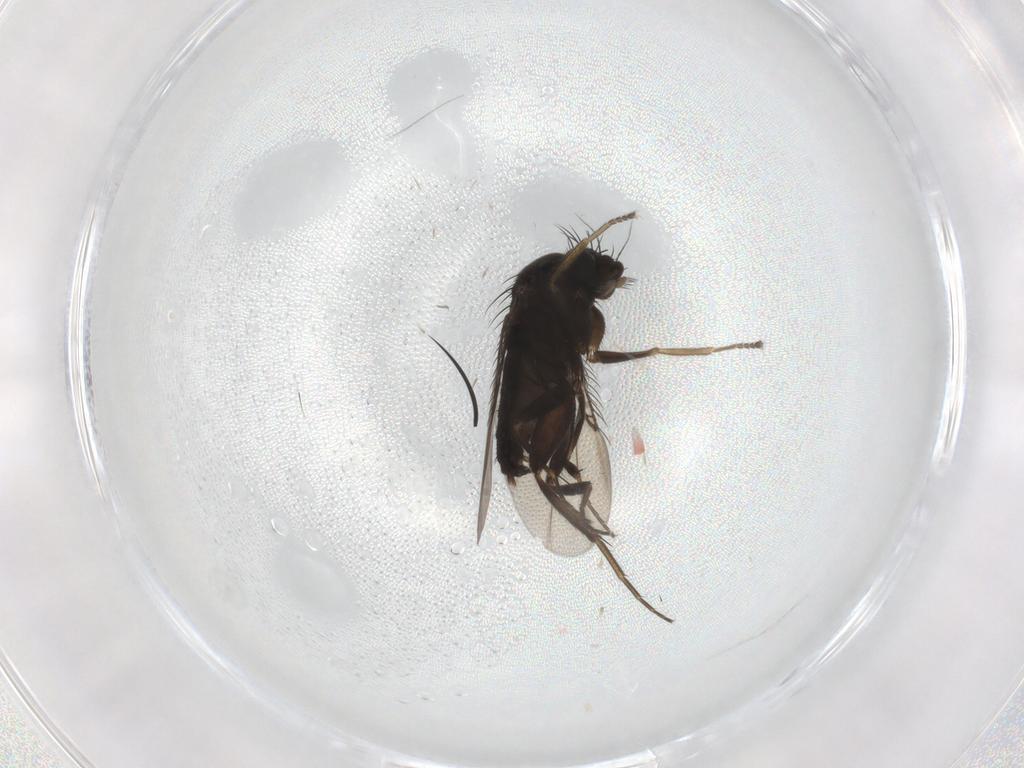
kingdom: Animalia
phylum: Arthropoda
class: Insecta
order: Diptera
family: Phoridae
